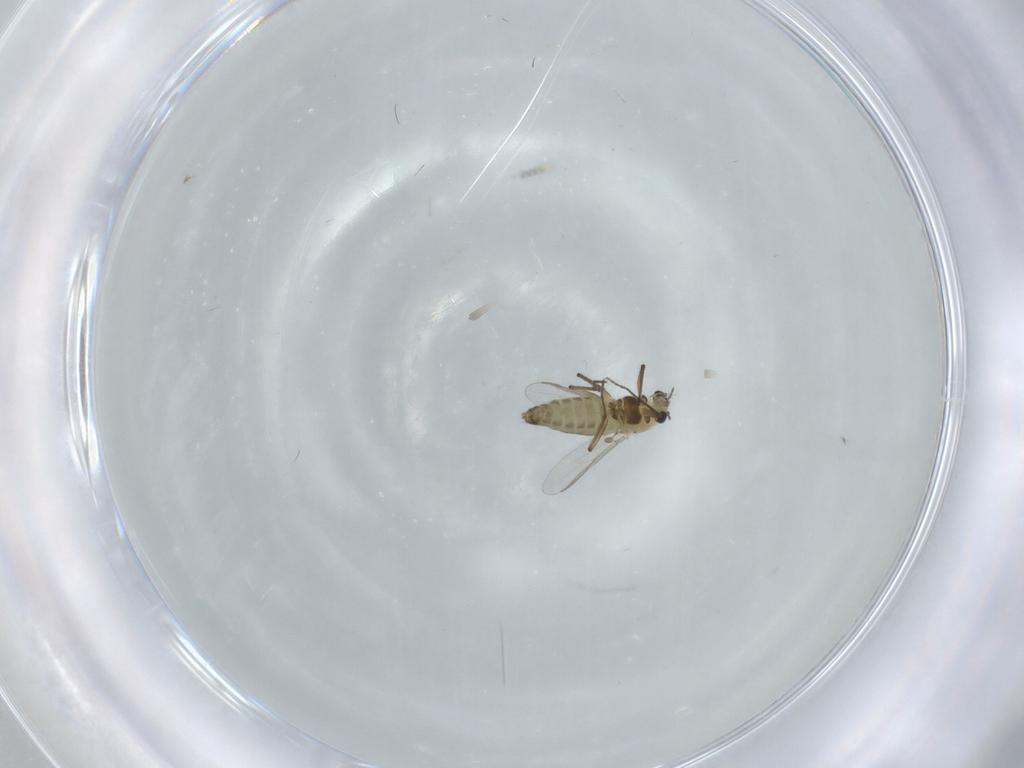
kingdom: Animalia
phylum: Arthropoda
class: Insecta
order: Diptera
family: Chironomidae
